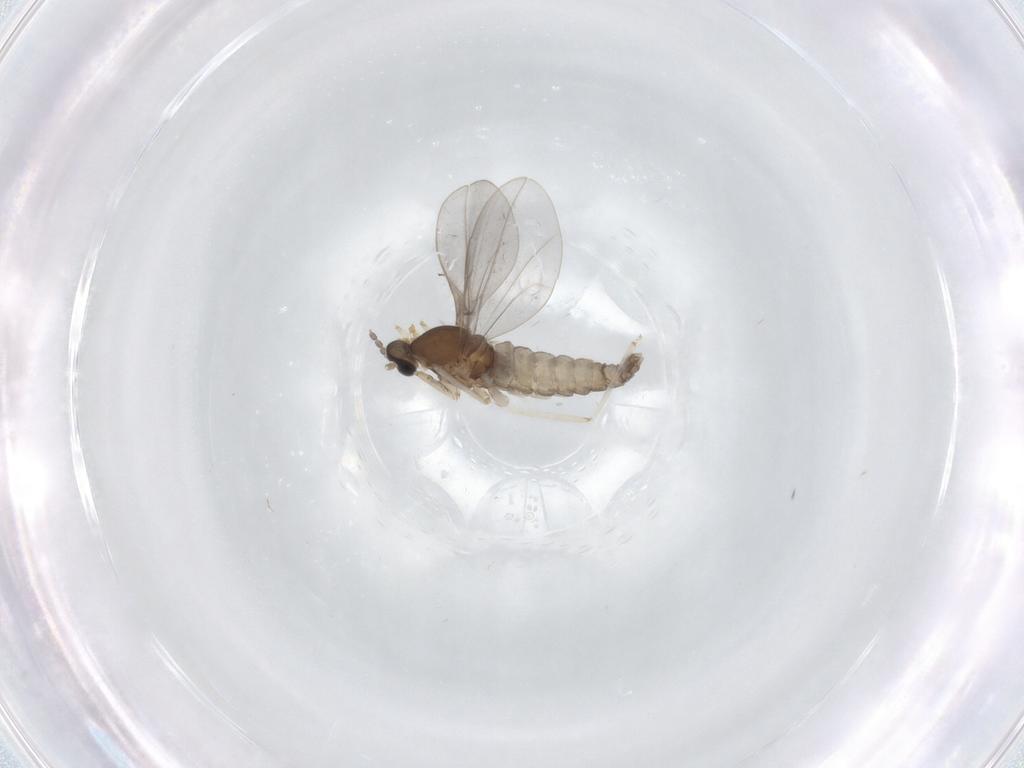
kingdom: Animalia
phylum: Arthropoda
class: Insecta
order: Diptera
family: Cecidomyiidae
